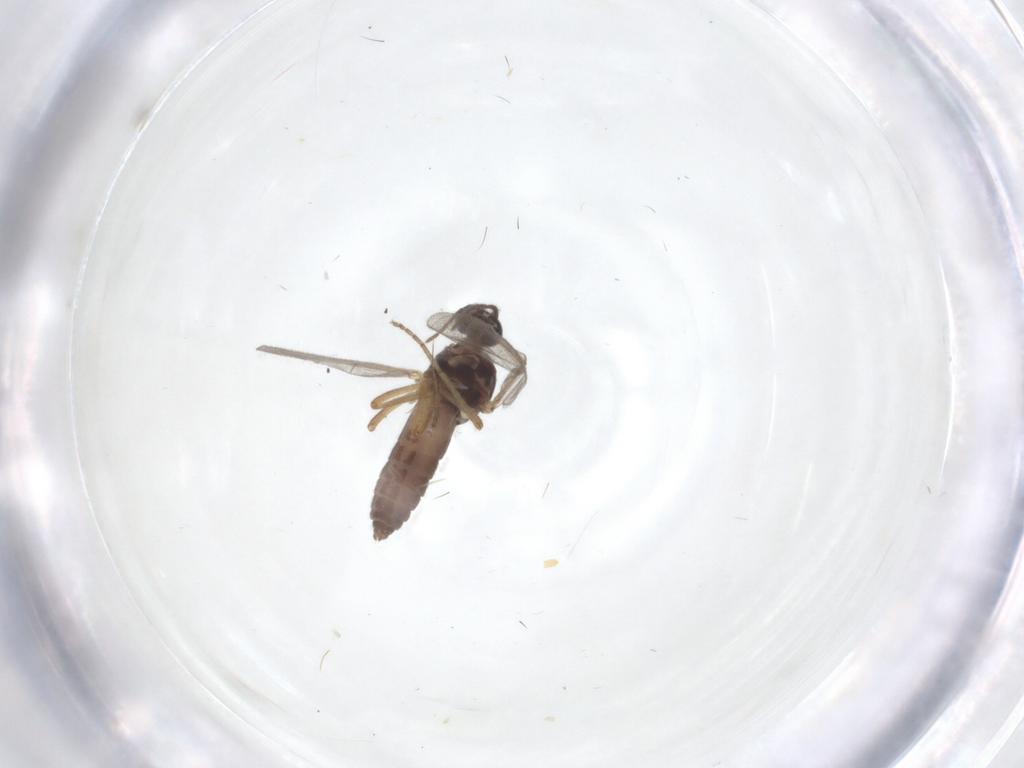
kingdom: Animalia
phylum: Arthropoda
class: Insecta
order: Diptera
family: Ceratopogonidae
